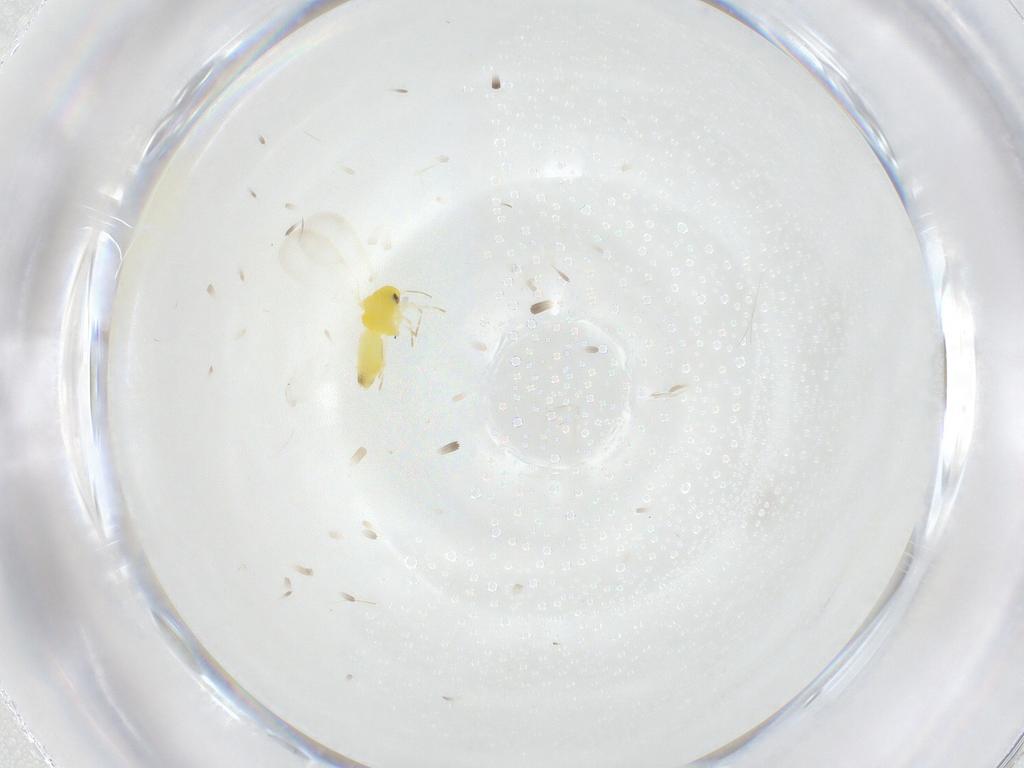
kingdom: Animalia
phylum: Arthropoda
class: Insecta
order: Hemiptera
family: Aleyrodidae
